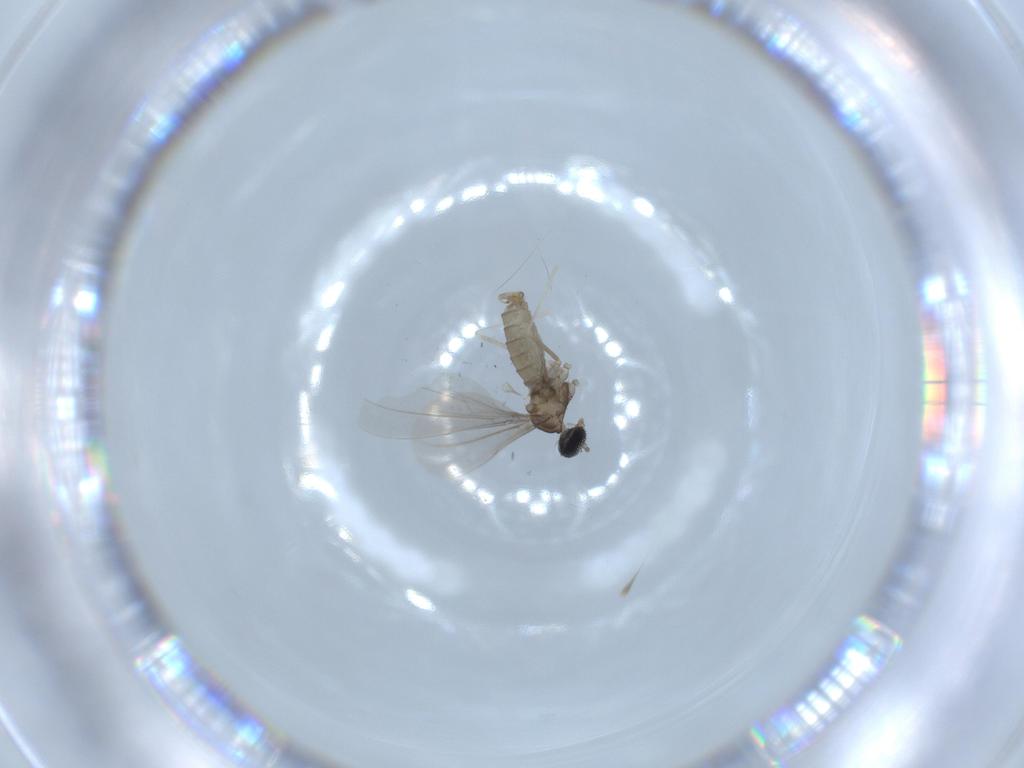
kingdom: Animalia
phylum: Arthropoda
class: Insecta
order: Diptera
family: Cecidomyiidae
